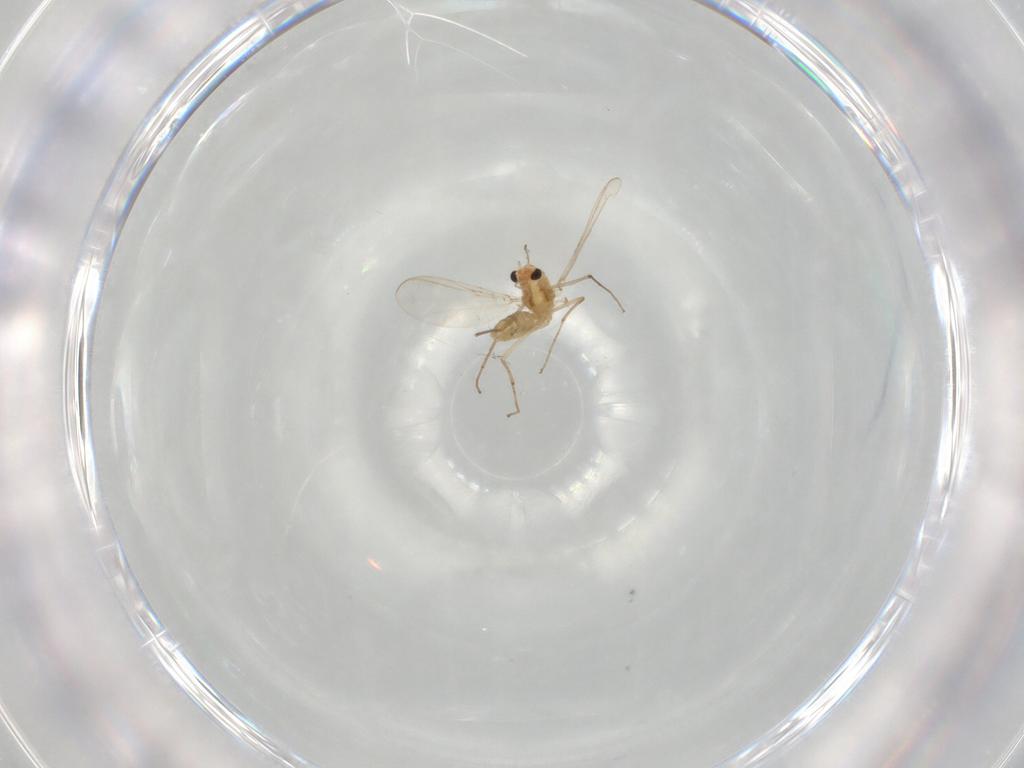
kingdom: Animalia
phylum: Arthropoda
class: Insecta
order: Diptera
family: Chironomidae
